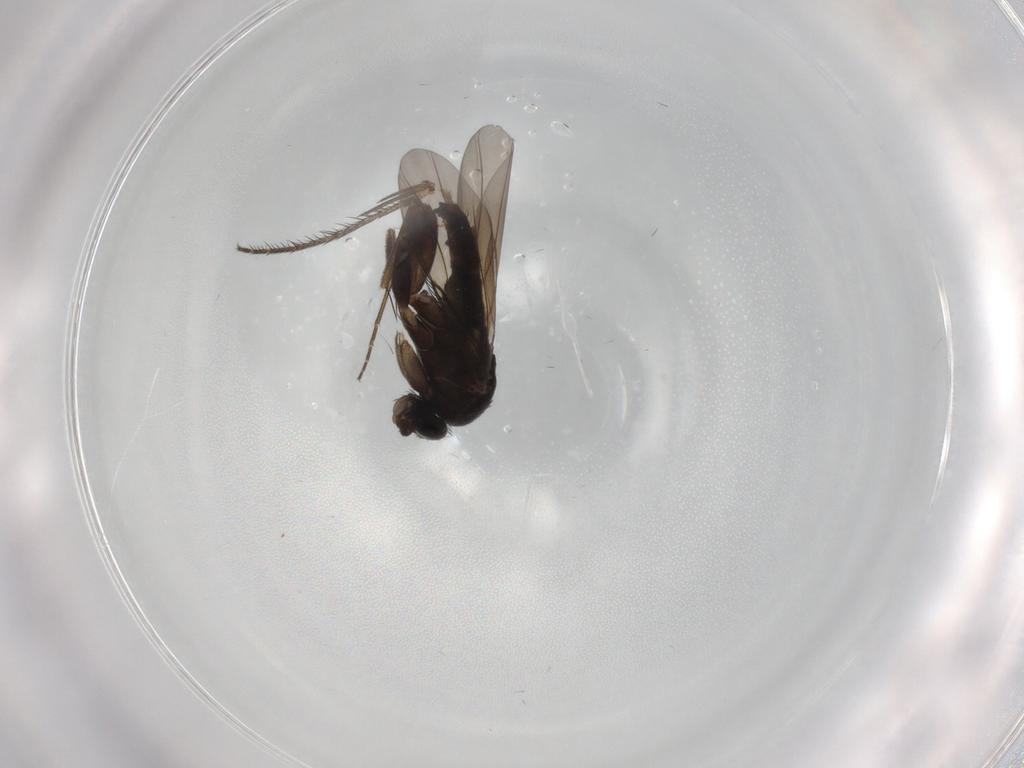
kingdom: Animalia
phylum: Arthropoda
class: Insecta
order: Diptera
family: Phoridae
